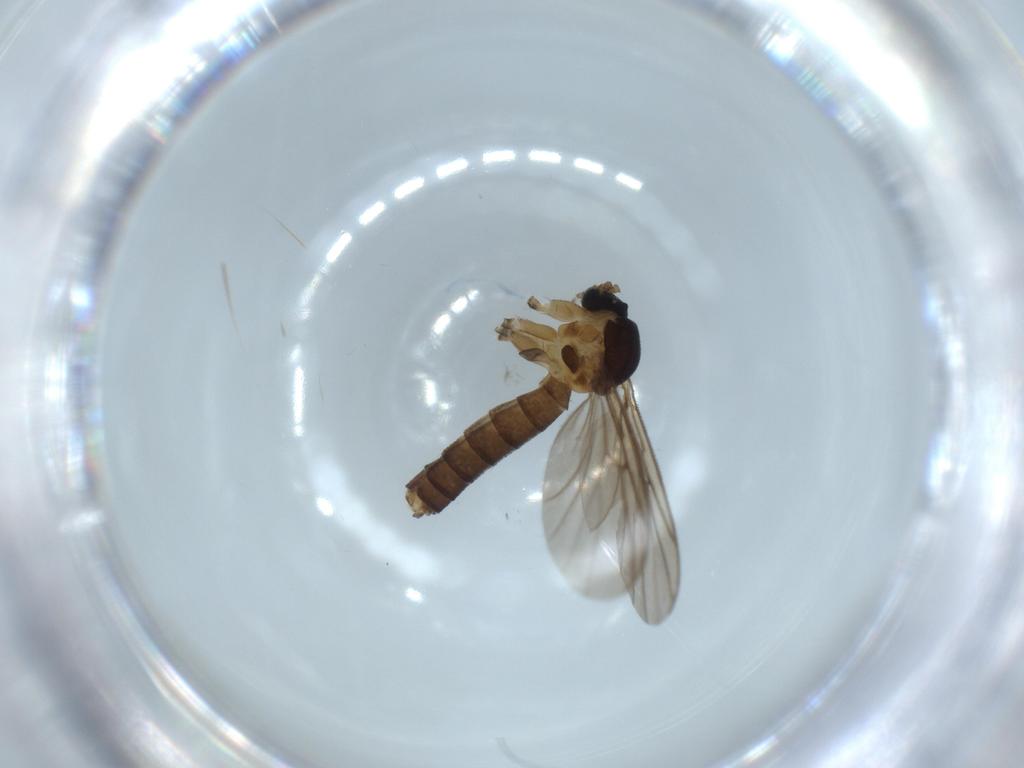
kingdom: Animalia
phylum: Arthropoda
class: Insecta
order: Diptera
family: Mycetophilidae
